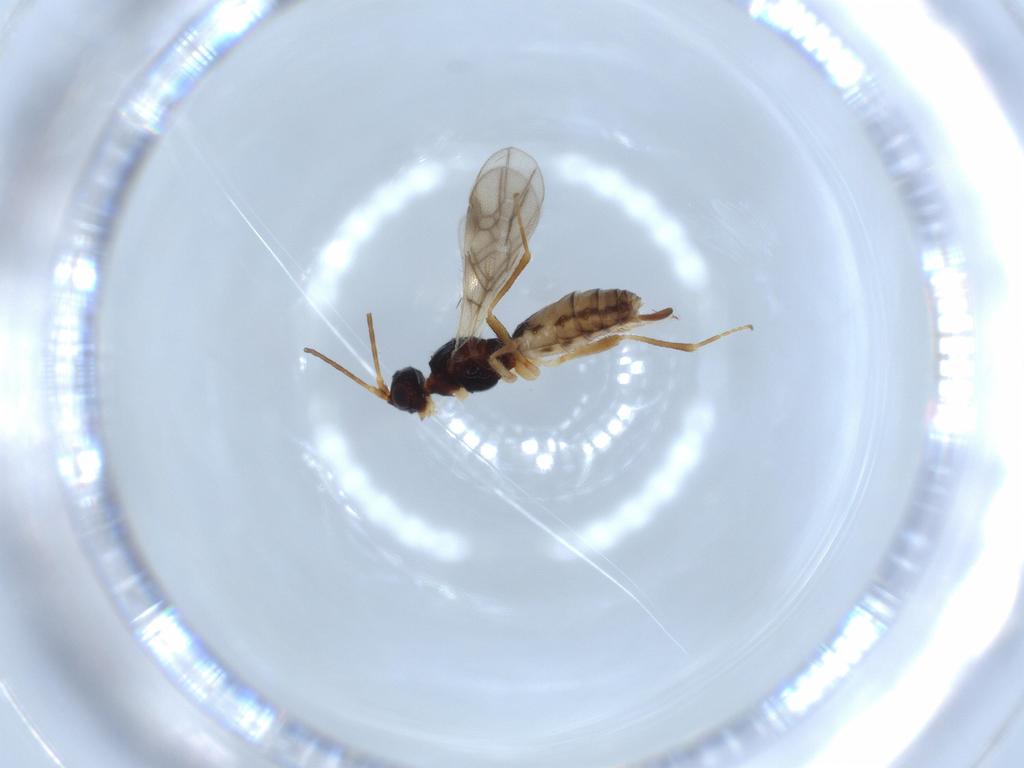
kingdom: Animalia
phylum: Arthropoda
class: Insecta
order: Hymenoptera
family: Braconidae
